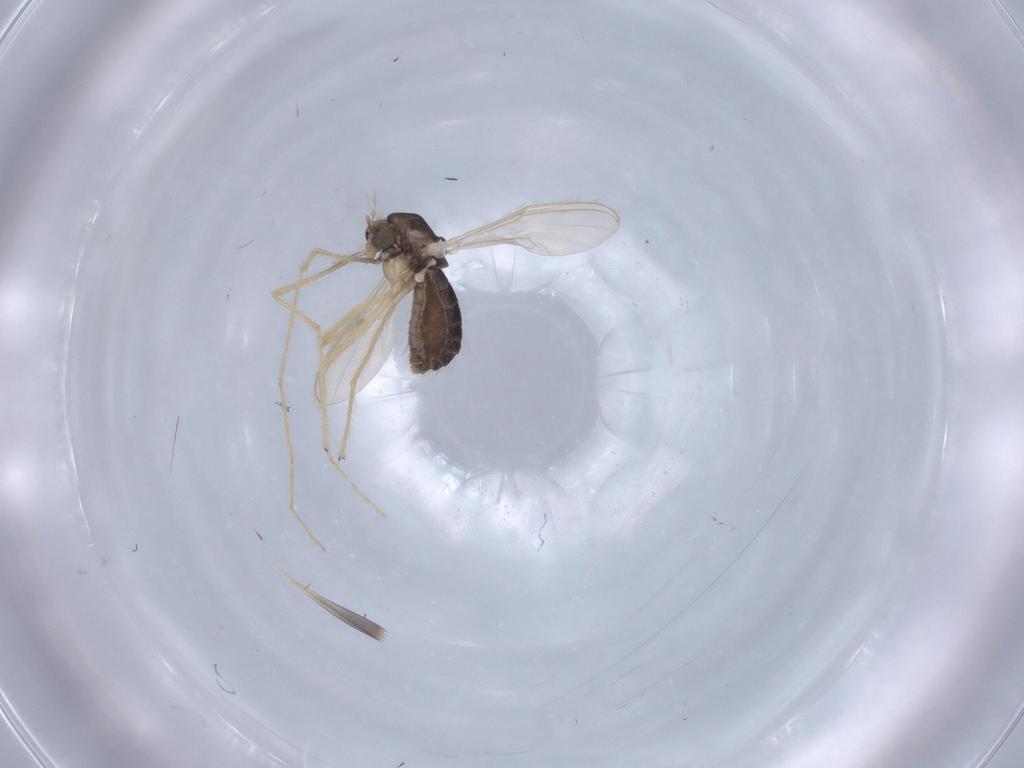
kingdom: Animalia
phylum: Arthropoda
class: Insecta
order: Diptera
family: Chironomidae
